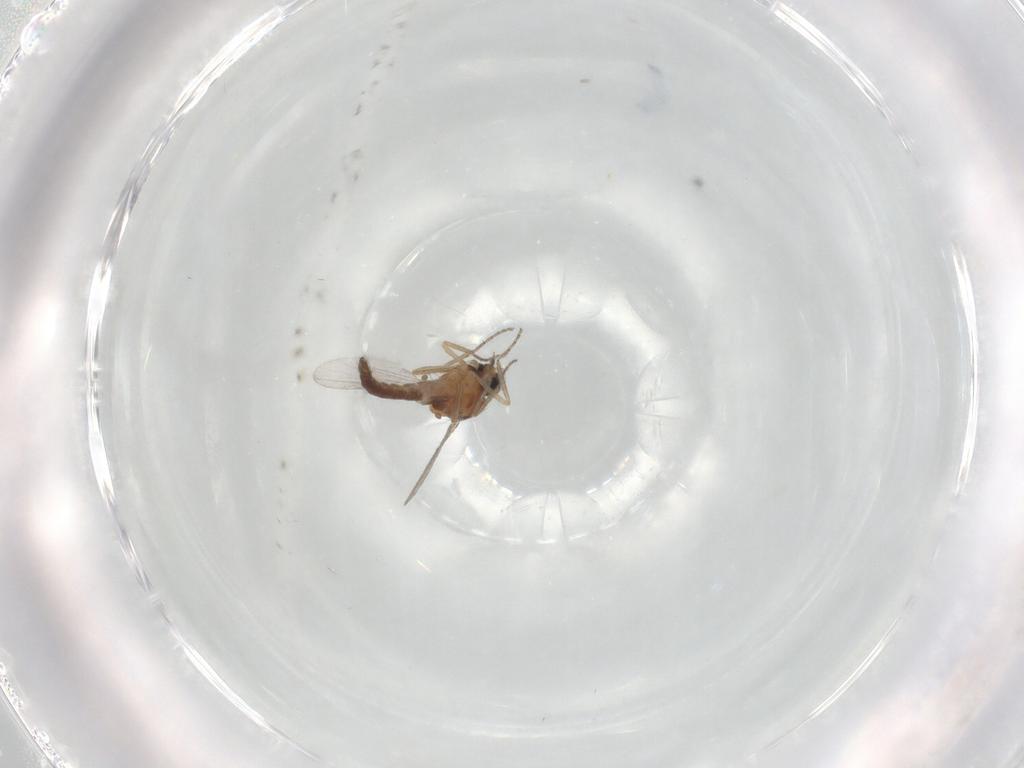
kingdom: Animalia
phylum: Arthropoda
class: Insecta
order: Diptera
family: Ceratopogonidae
